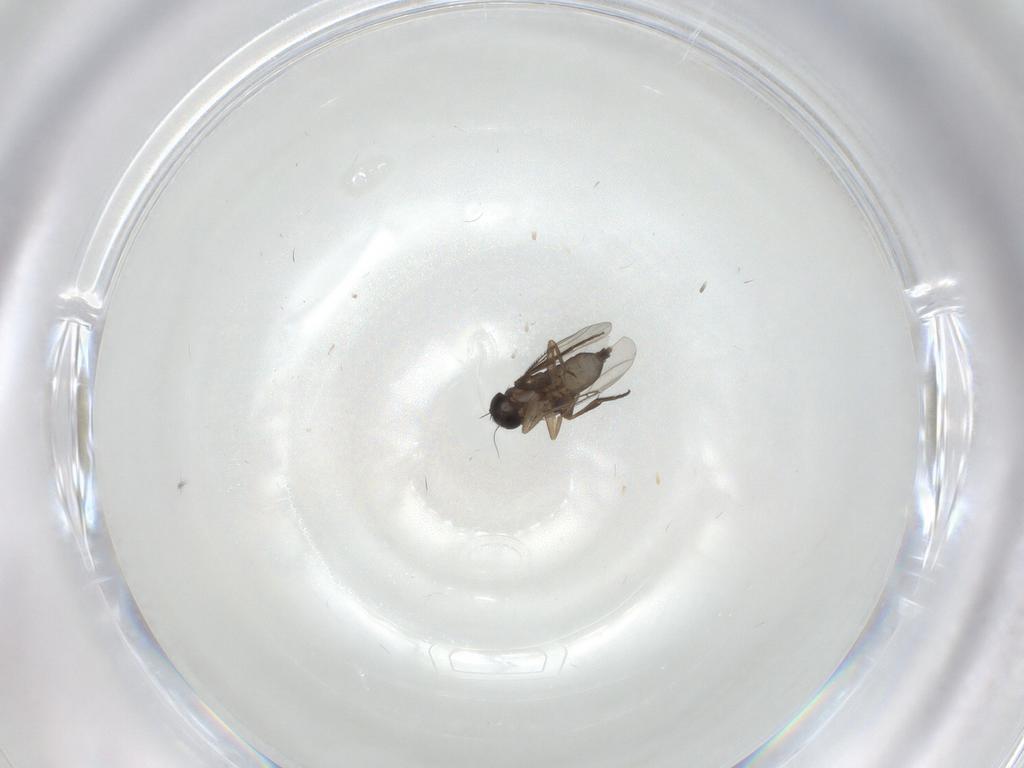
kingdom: Animalia
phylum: Arthropoda
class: Insecta
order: Diptera
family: Phoridae
